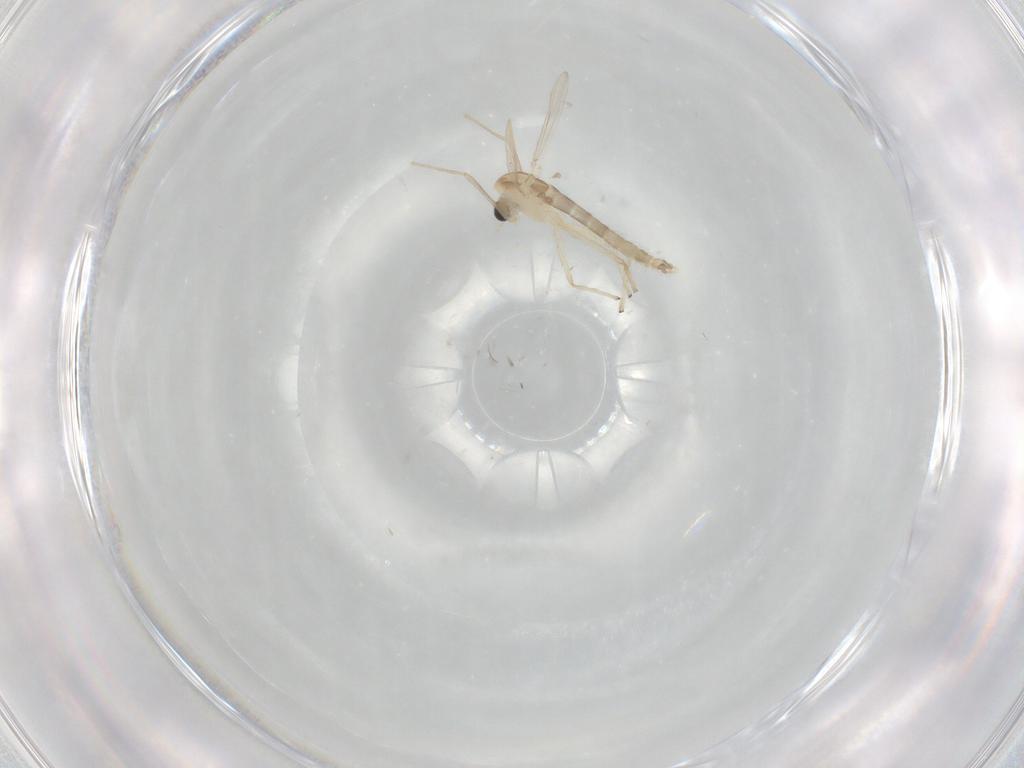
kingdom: Animalia
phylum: Arthropoda
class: Insecta
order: Diptera
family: Chironomidae
